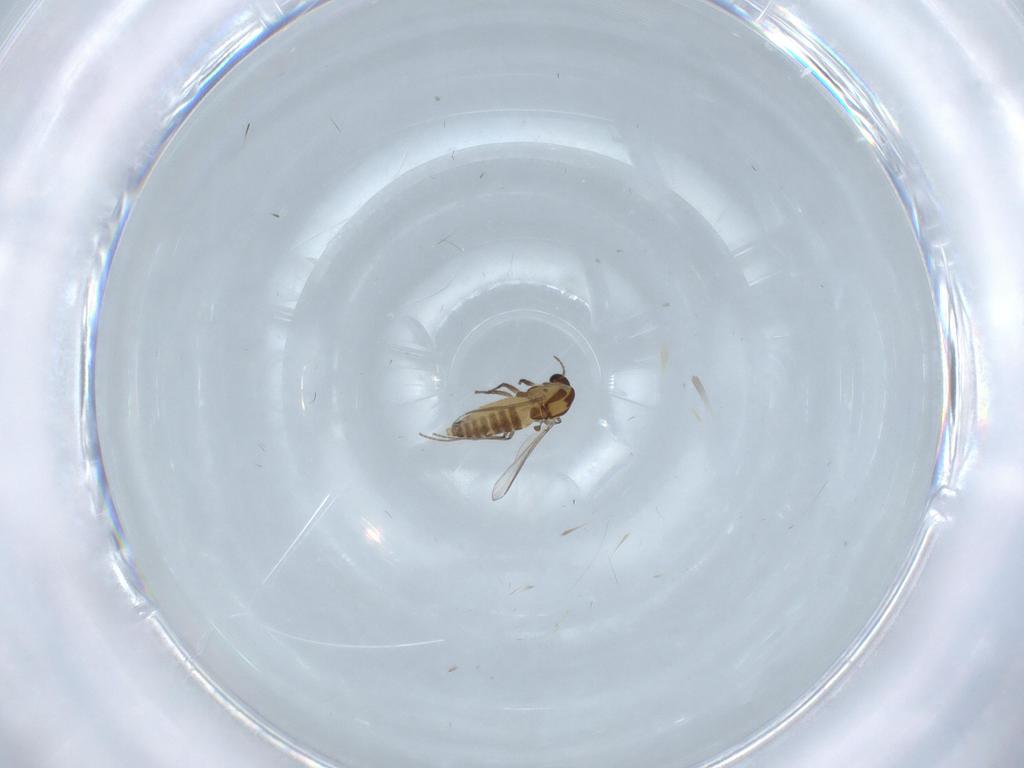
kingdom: Animalia
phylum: Arthropoda
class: Insecta
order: Diptera
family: Chironomidae
